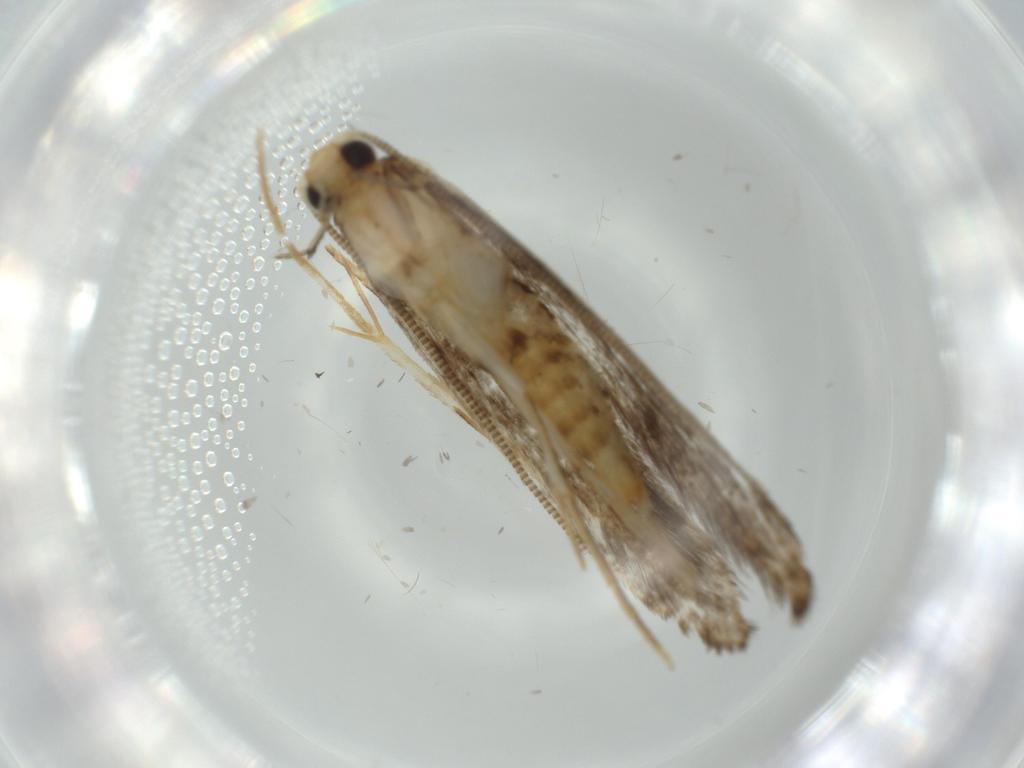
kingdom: Animalia
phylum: Arthropoda
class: Insecta
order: Lepidoptera
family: Tineidae
